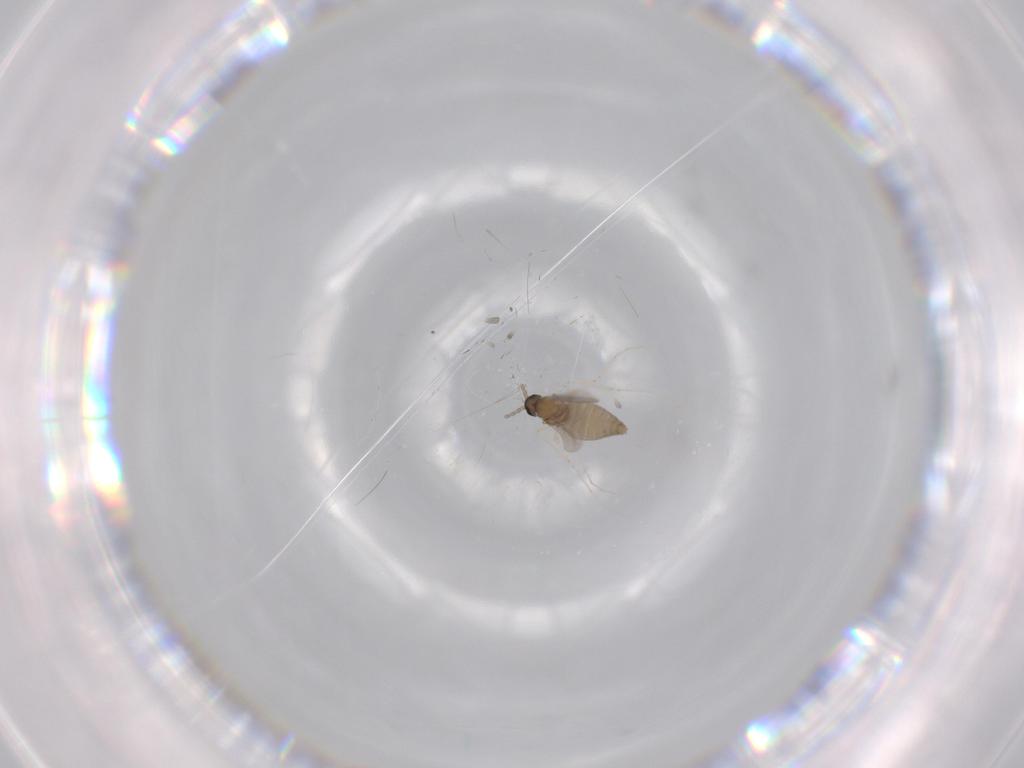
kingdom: Animalia
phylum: Arthropoda
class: Insecta
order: Diptera
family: Cecidomyiidae
